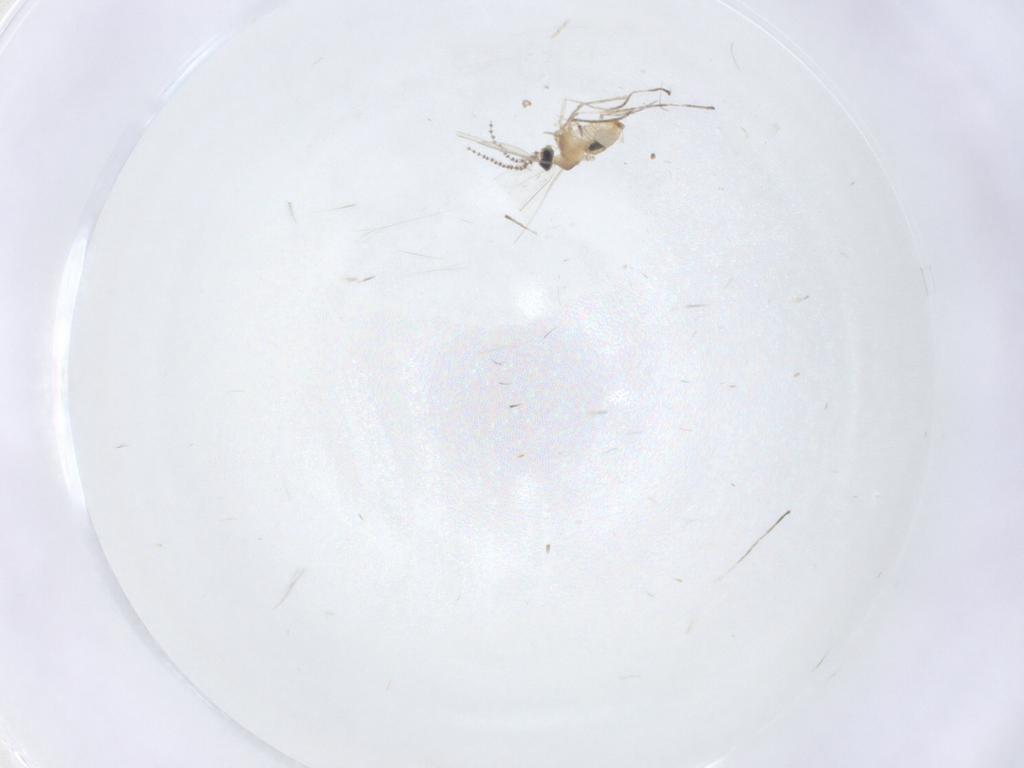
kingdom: Animalia
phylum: Arthropoda
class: Insecta
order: Diptera
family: Cecidomyiidae
